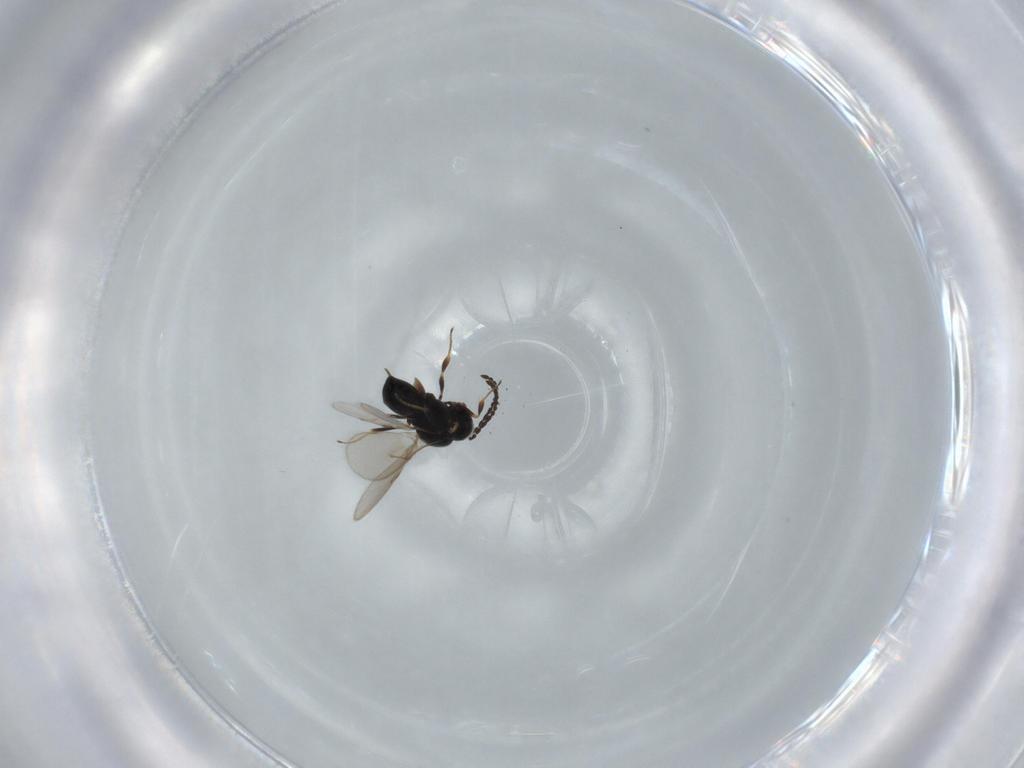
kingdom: Animalia
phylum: Arthropoda
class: Insecta
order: Hymenoptera
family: Scelionidae
